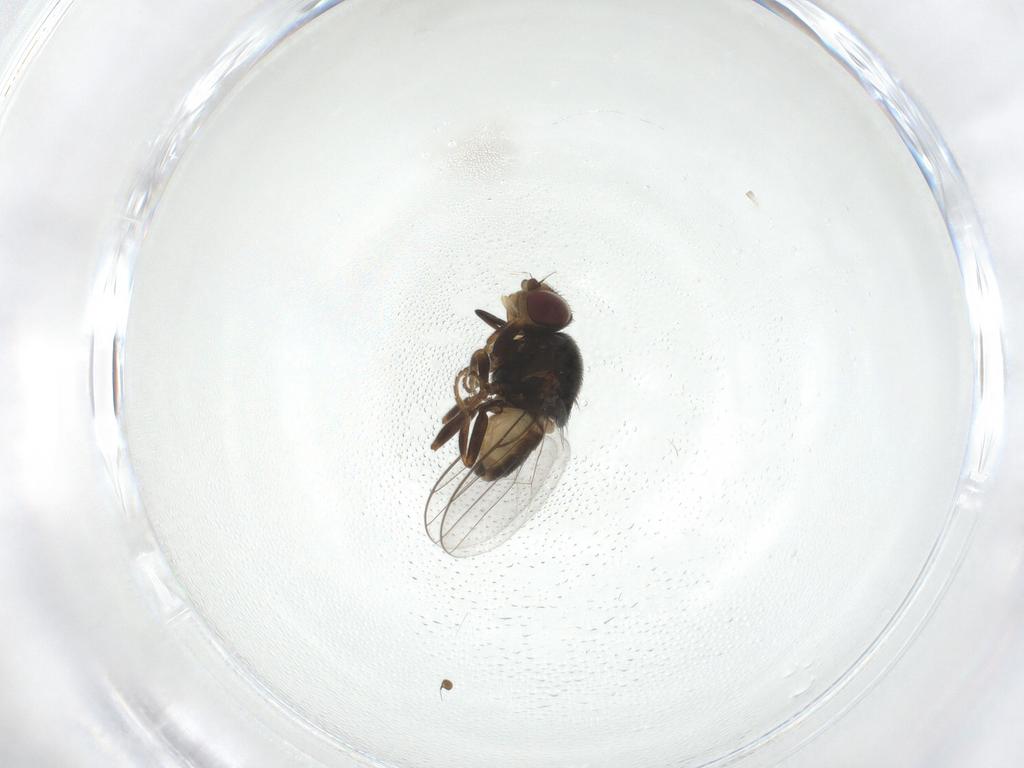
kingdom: Animalia
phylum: Arthropoda
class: Insecta
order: Diptera
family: Chloropidae
